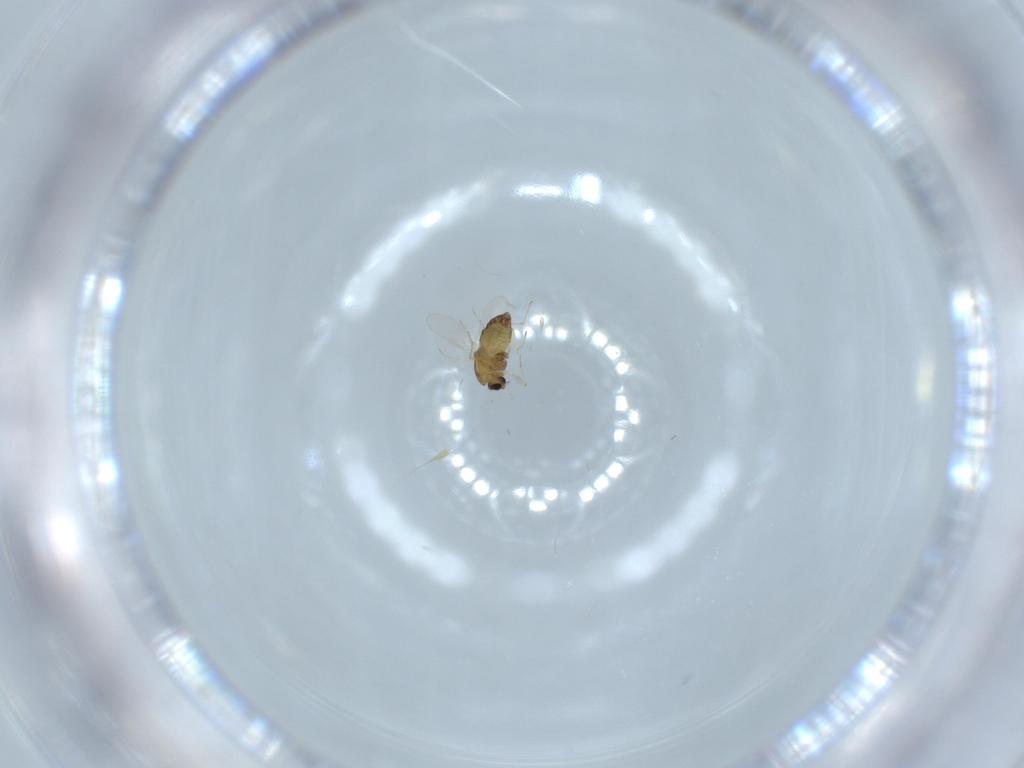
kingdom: Animalia
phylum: Arthropoda
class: Insecta
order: Diptera
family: Chironomidae
